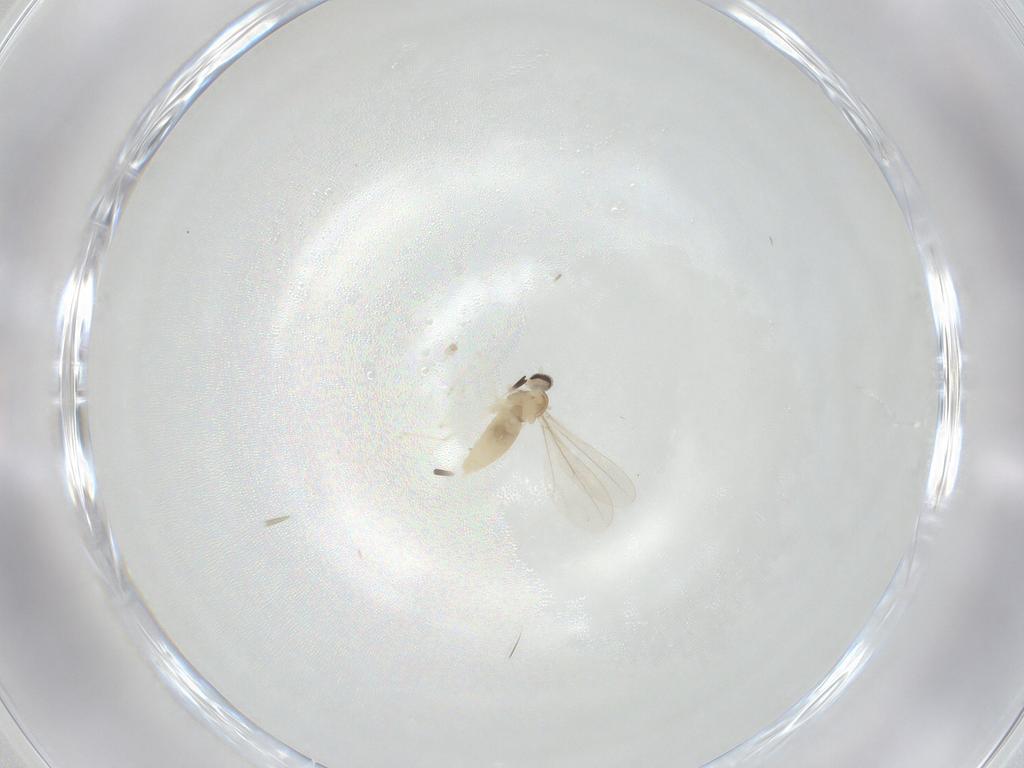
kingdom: Animalia
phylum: Arthropoda
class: Insecta
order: Diptera
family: Cecidomyiidae
